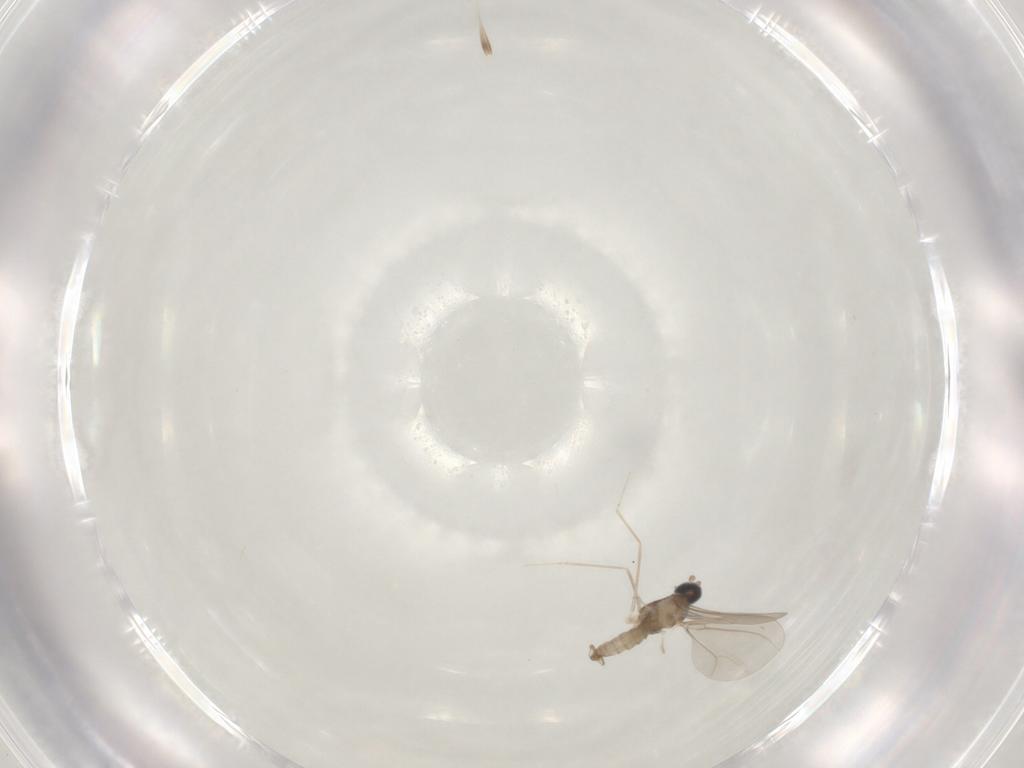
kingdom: Animalia
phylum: Arthropoda
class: Insecta
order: Diptera
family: Cecidomyiidae
